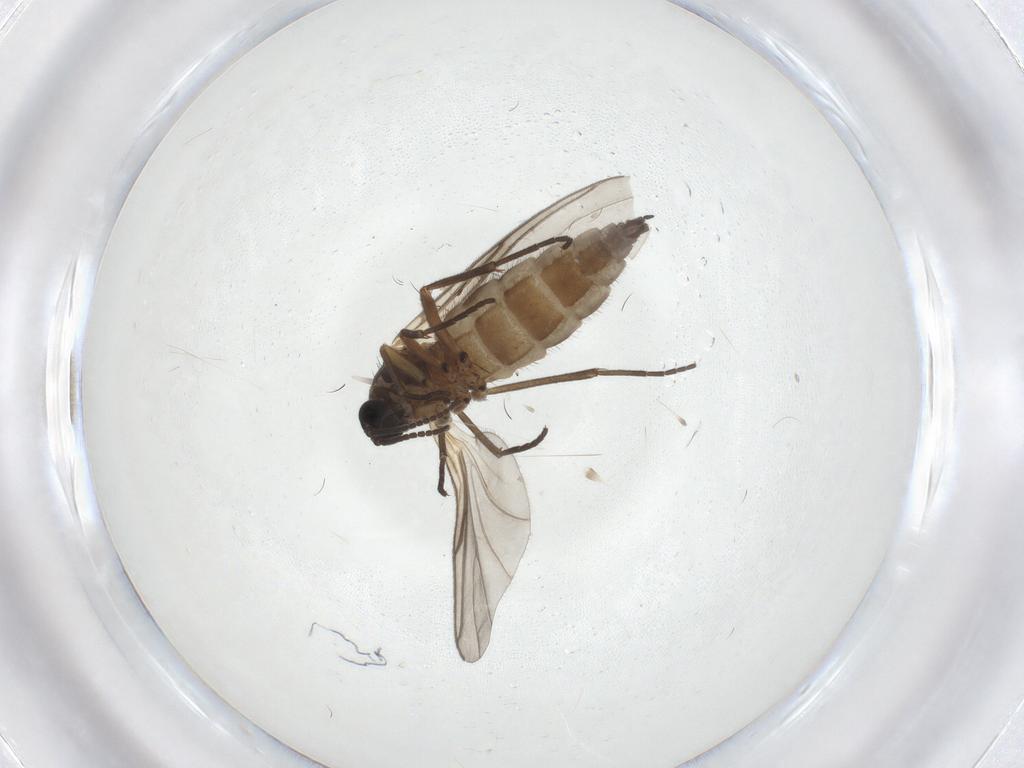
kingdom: Animalia
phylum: Arthropoda
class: Insecta
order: Diptera
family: Sciaridae
